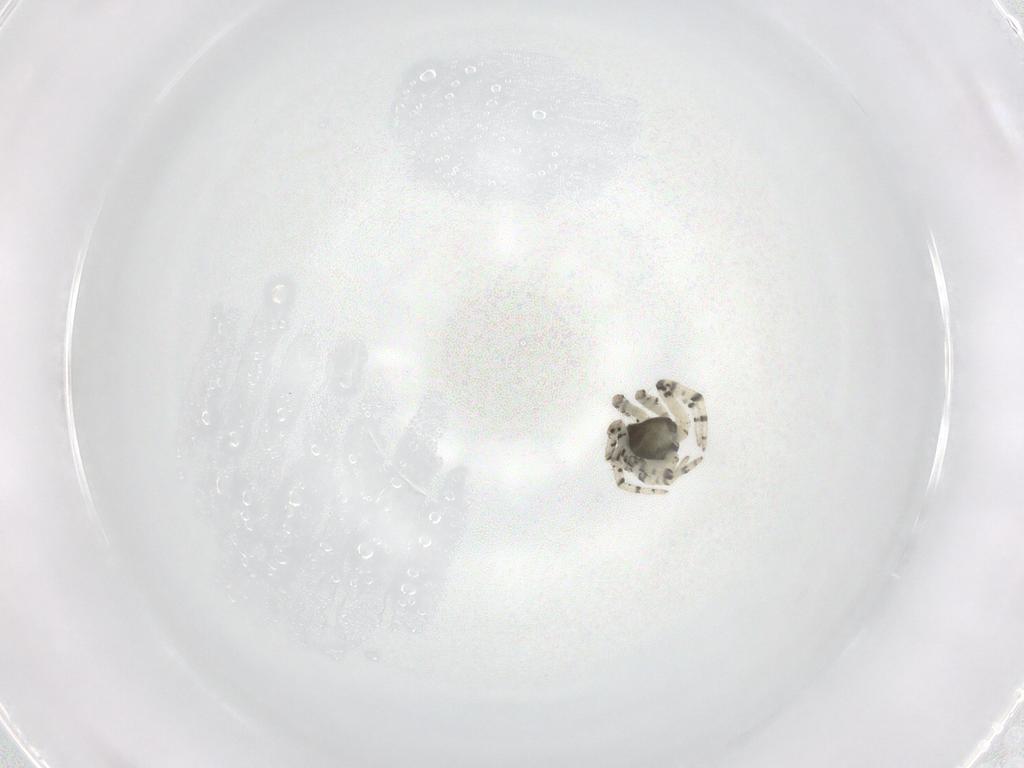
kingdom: Animalia
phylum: Arthropoda
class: Arachnida
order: Araneae
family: Theridiidae
